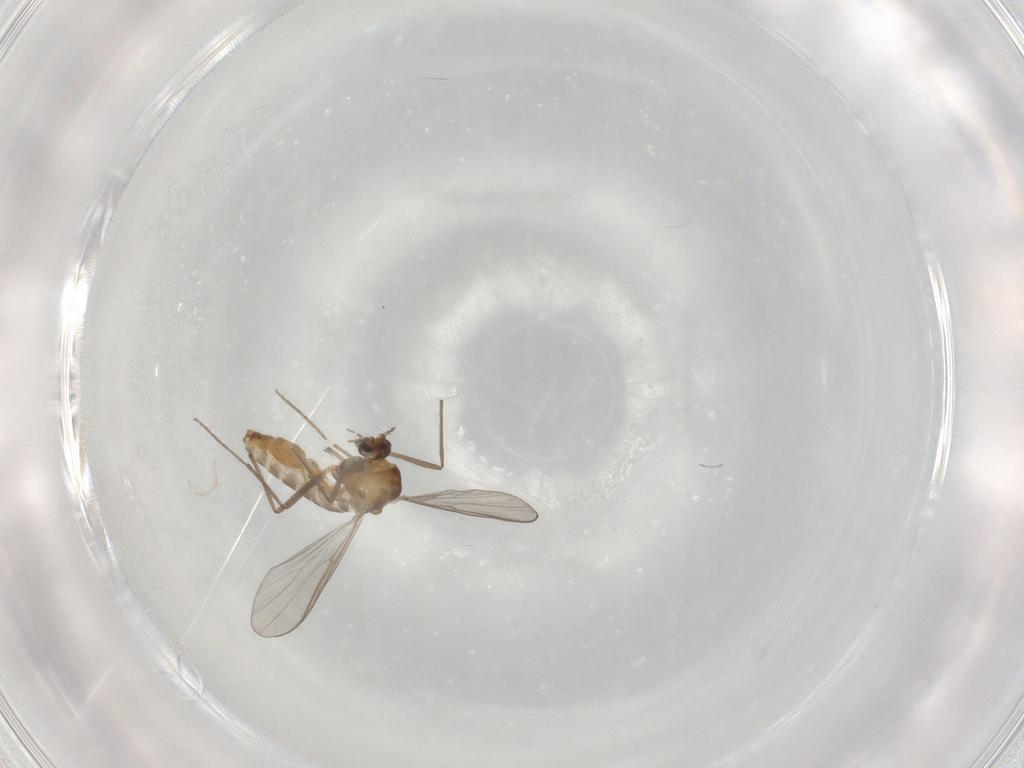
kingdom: Animalia
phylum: Arthropoda
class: Insecta
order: Diptera
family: Chironomidae
